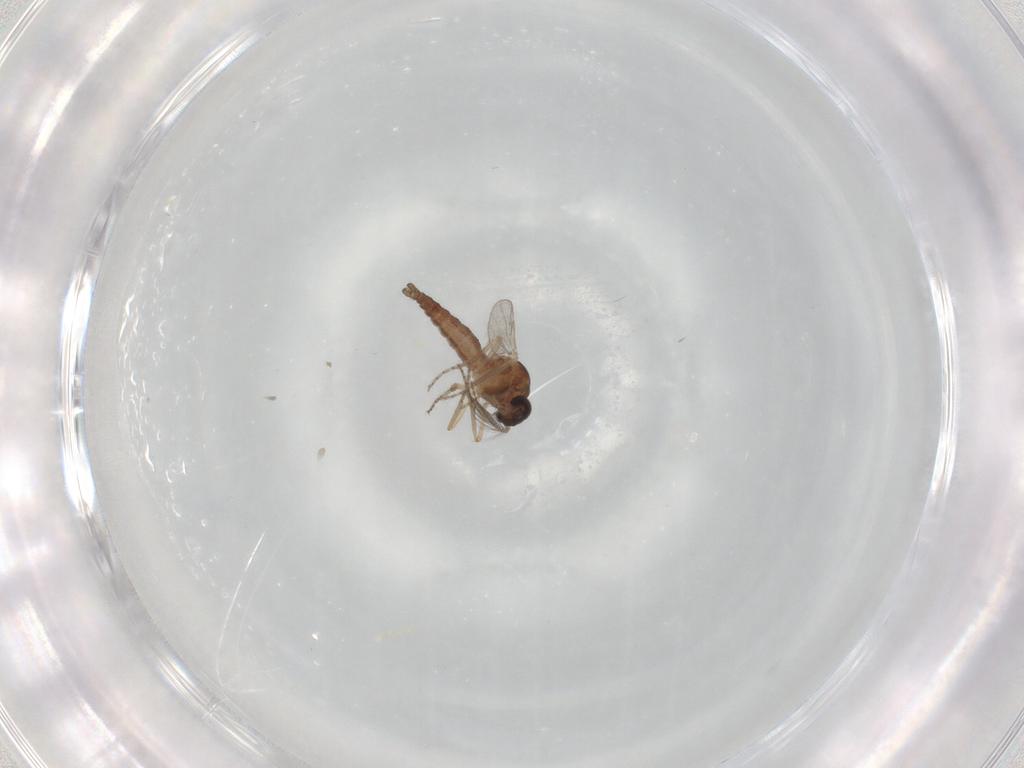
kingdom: Animalia
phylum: Arthropoda
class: Insecta
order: Diptera
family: Ceratopogonidae
